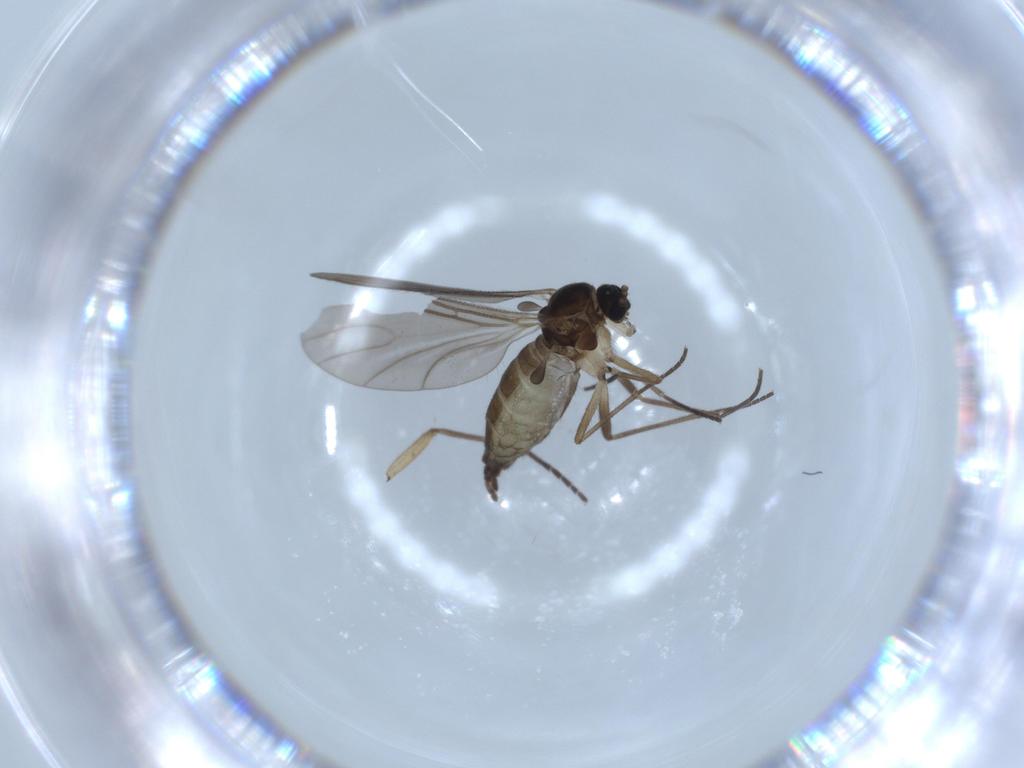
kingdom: Animalia
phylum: Arthropoda
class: Insecta
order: Diptera
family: Sciaridae
